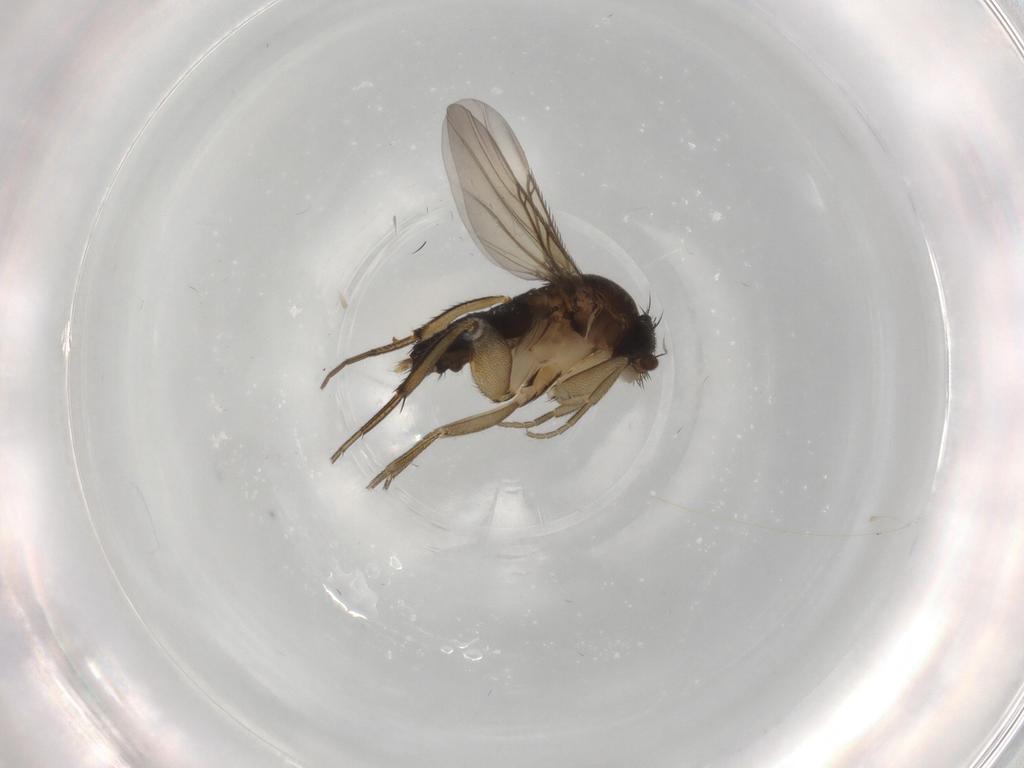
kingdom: Animalia
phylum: Arthropoda
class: Insecta
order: Diptera
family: Phoridae
